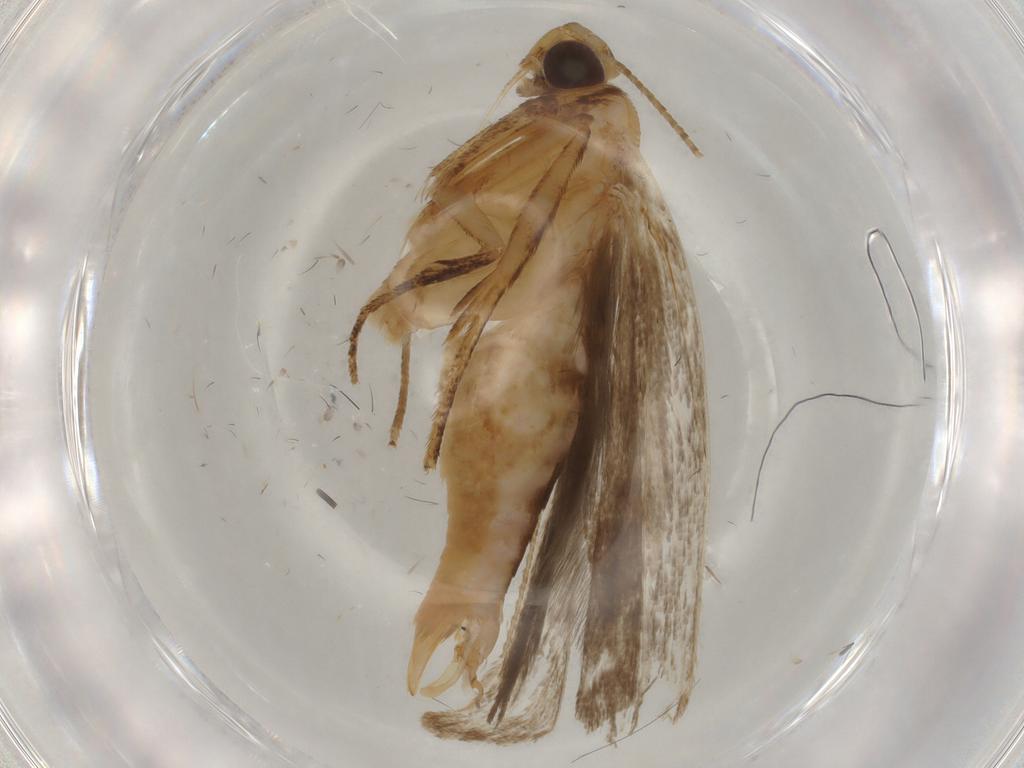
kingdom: Animalia
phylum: Arthropoda
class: Insecta
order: Lepidoptera
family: Gelechiidae
